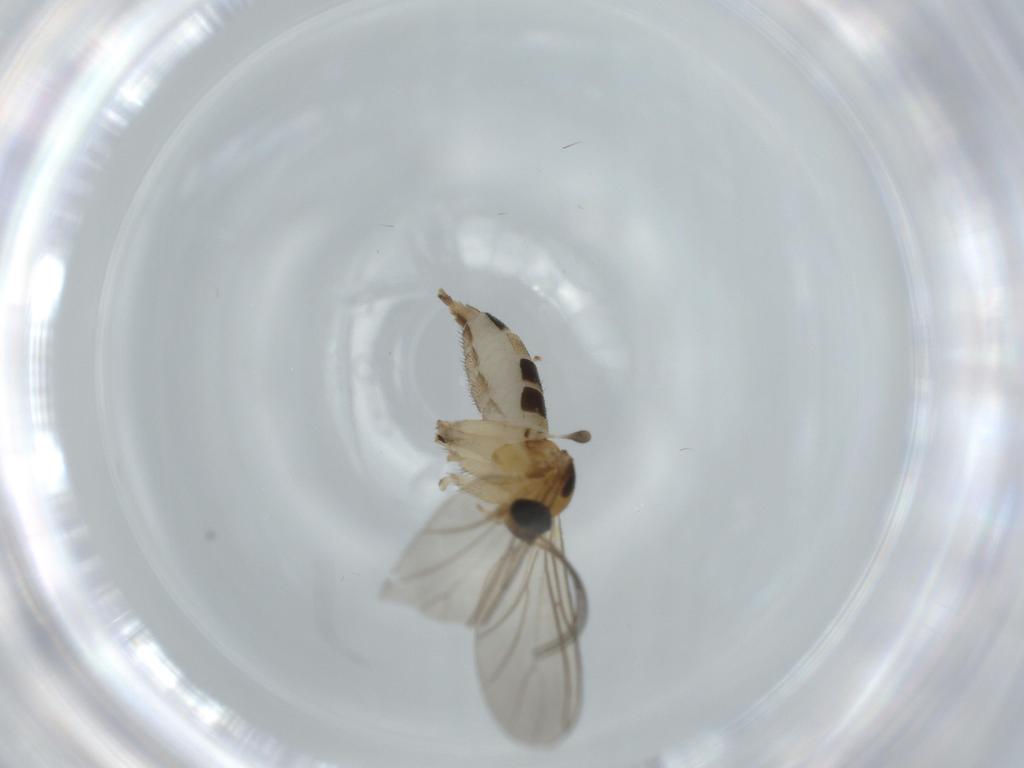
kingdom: Animalia
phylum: Arthropoda
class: Insecta
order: Diptera
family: Sciaridae
